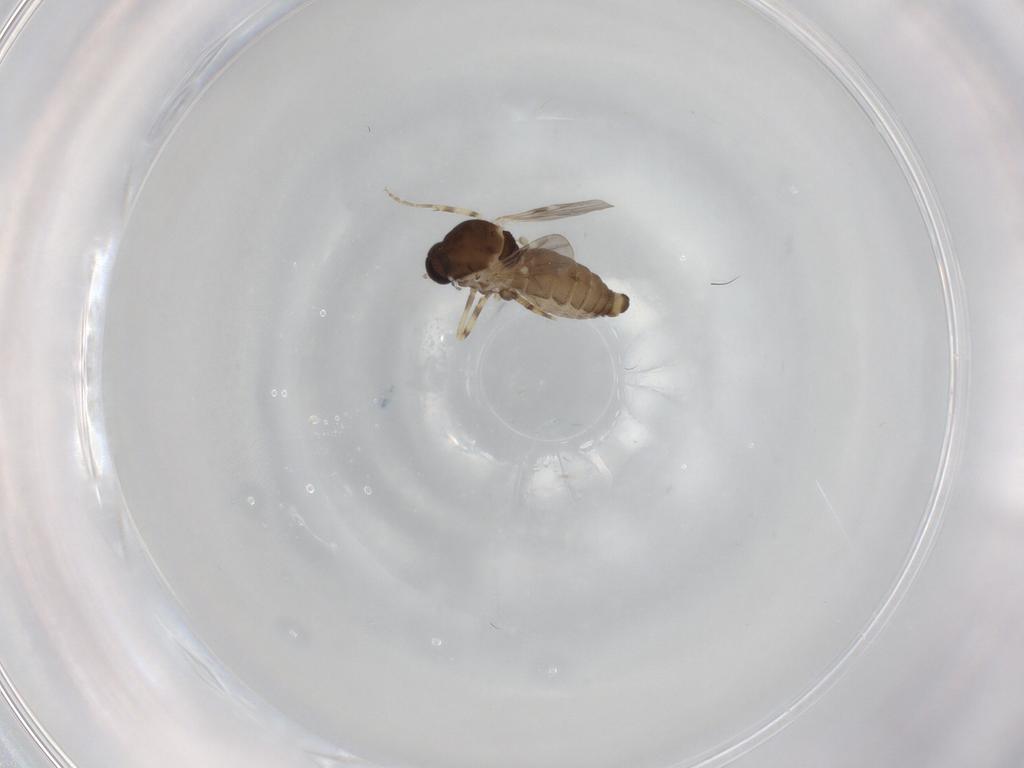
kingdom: Animalia
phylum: Arthropoda
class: Insecta
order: Diptera
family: Ceratopogonidae
